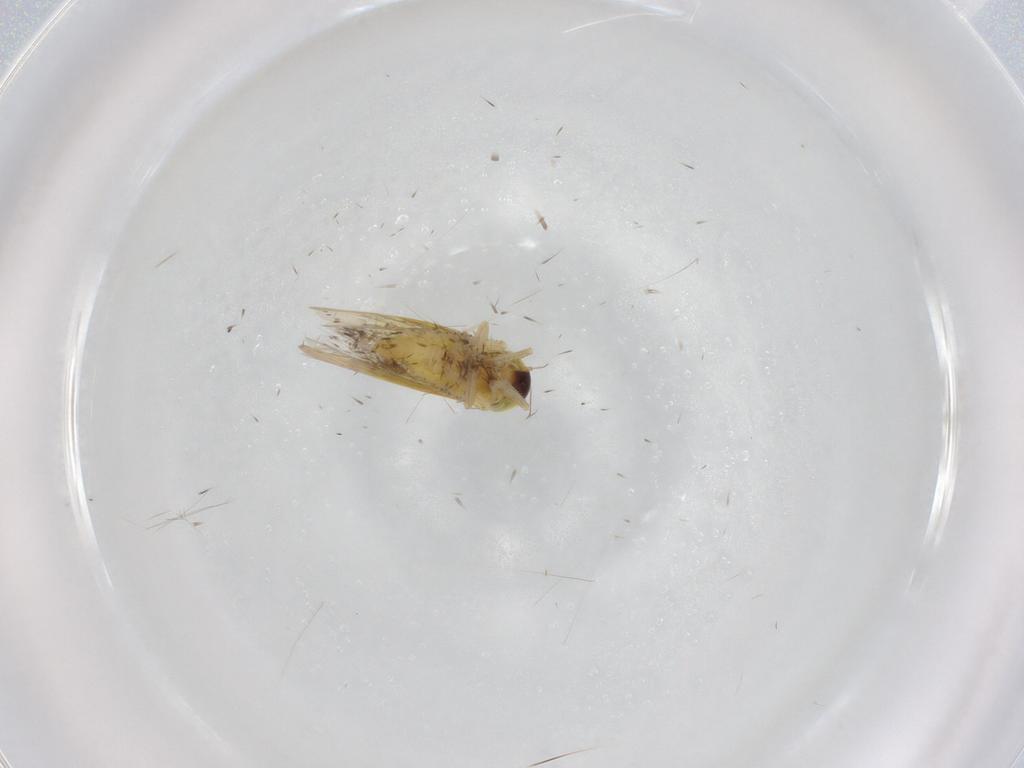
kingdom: Animalia
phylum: Arthropoda
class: Insecta
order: Hemiptera
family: Cicadellidae
